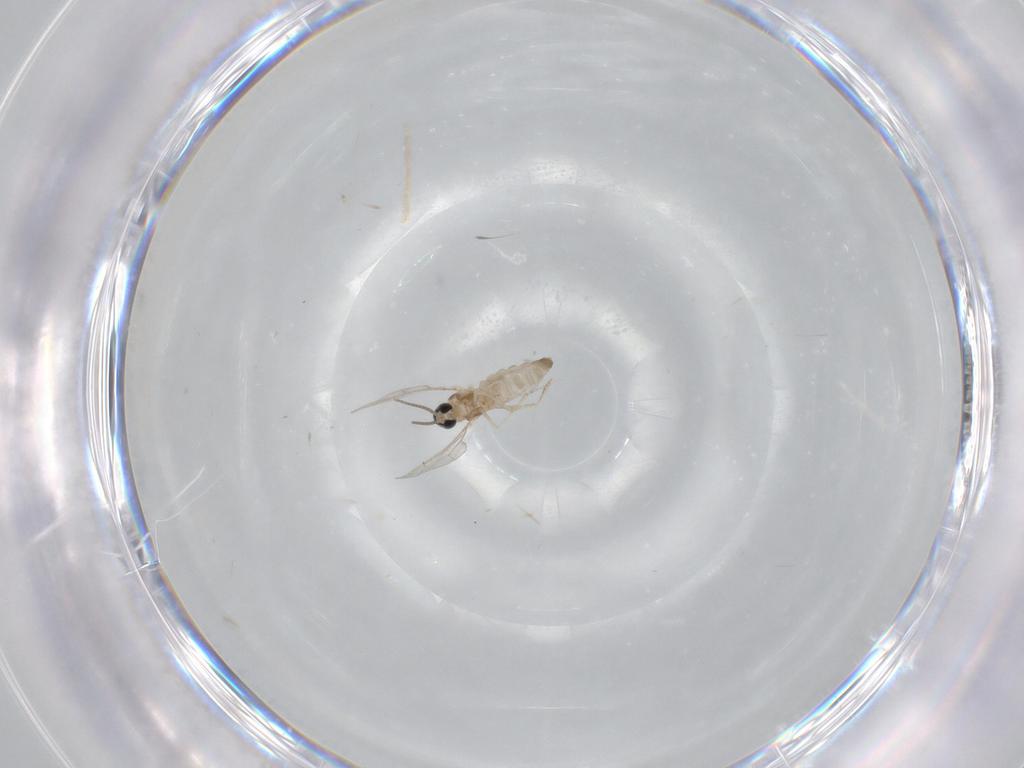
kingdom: Animalia
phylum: Arthropoda
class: Insecta
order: Diptera
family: Cecidomyiidae
